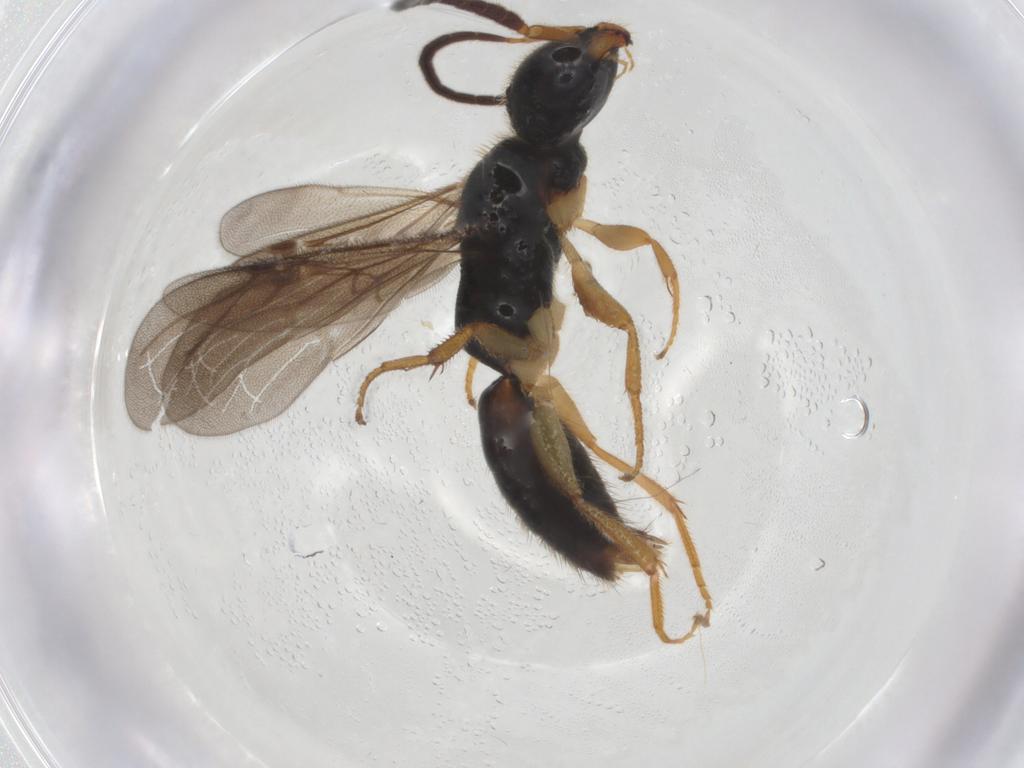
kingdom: Animalia
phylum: Arthropoda
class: Insecta
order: Hymenoptera
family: Bethylidae
